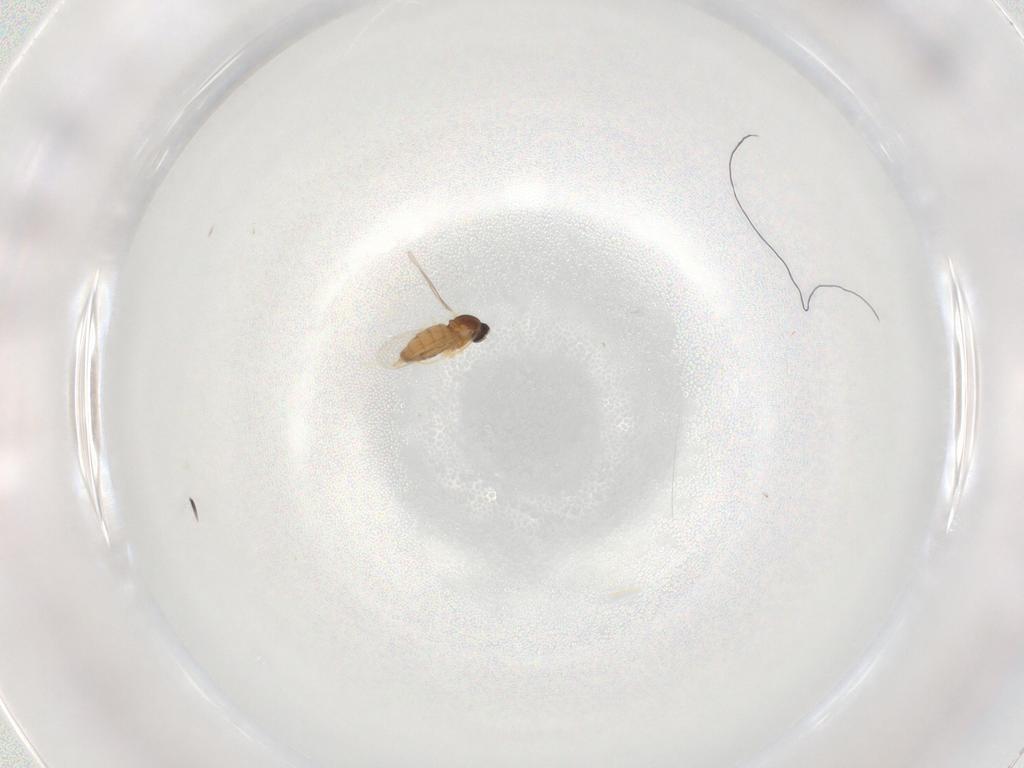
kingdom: Animalia
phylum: Arthropoda
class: Insecta
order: Diptera
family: Cecidomyiidae
